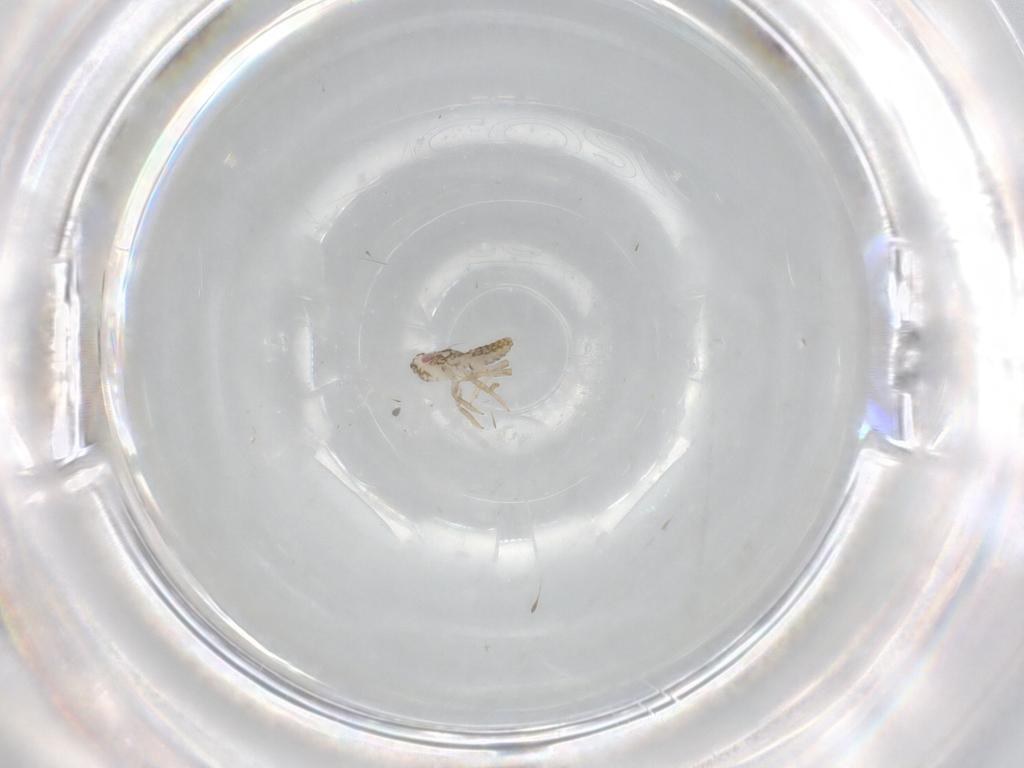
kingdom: Animalia
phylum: Arthropoda
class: Insecta
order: Hemiptera
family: Delphacidae
